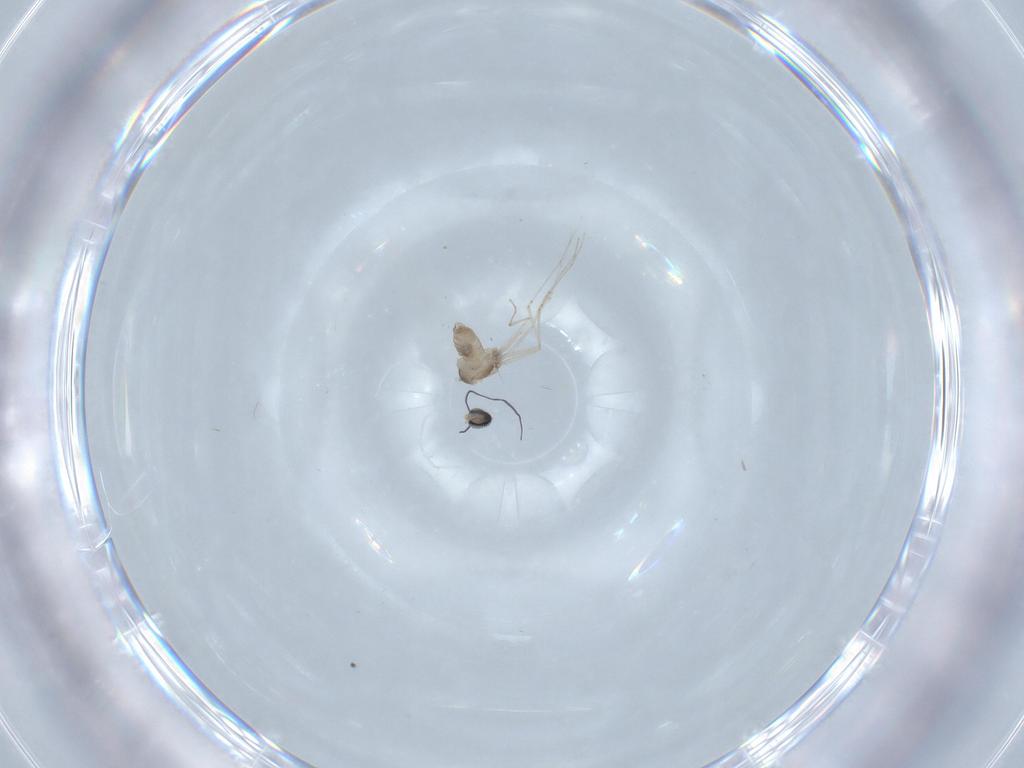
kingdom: Animalia
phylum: Arthropoda
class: Insecta
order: Diptera
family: Cecidomyiidae
